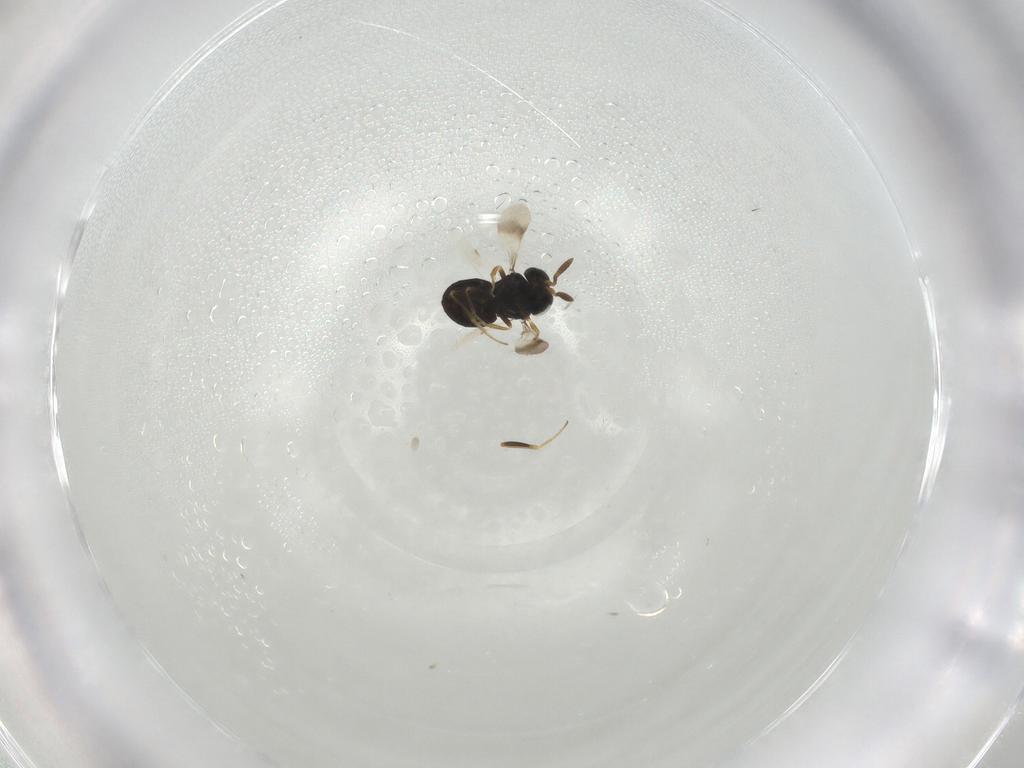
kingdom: Animalia
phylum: Arthropoda
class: Insecta
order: Hymenoptera
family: Scelionidae
